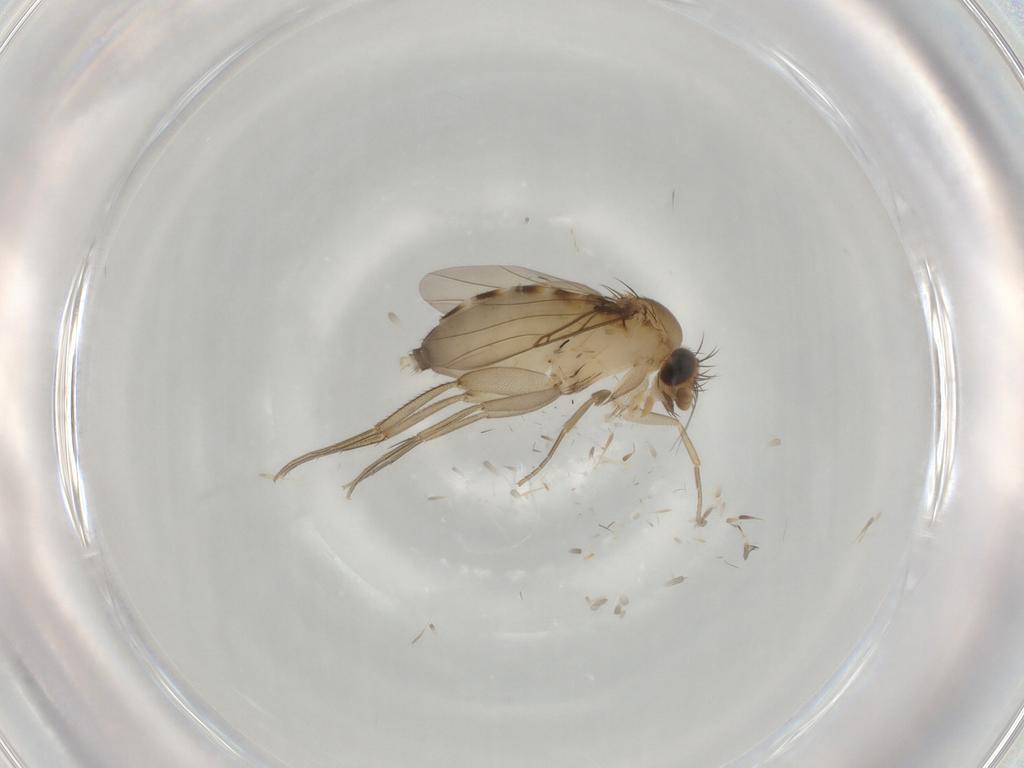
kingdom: Animalia
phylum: Arthropoda
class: Insecta
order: Diptera
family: Phoridae
